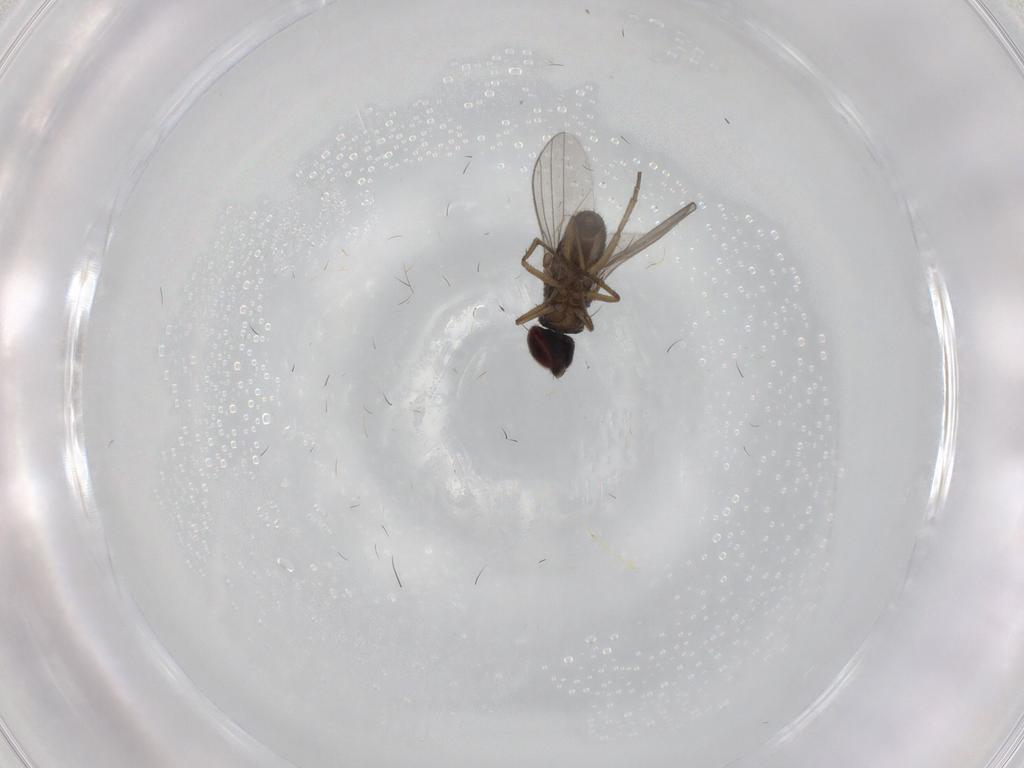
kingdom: Animalia
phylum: Arthropoda
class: Insecta
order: Diptera
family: Dolichopodidae
